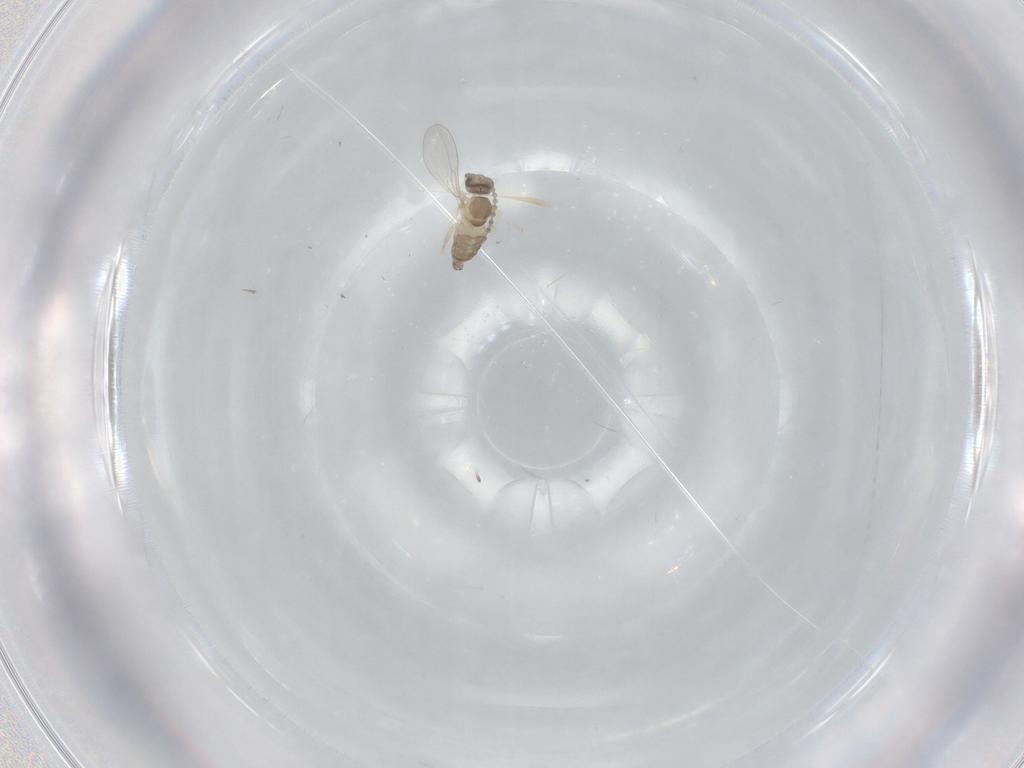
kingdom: Animalia
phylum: Arthropoda
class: Insecta
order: Diptera
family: Cecidomyiidae
